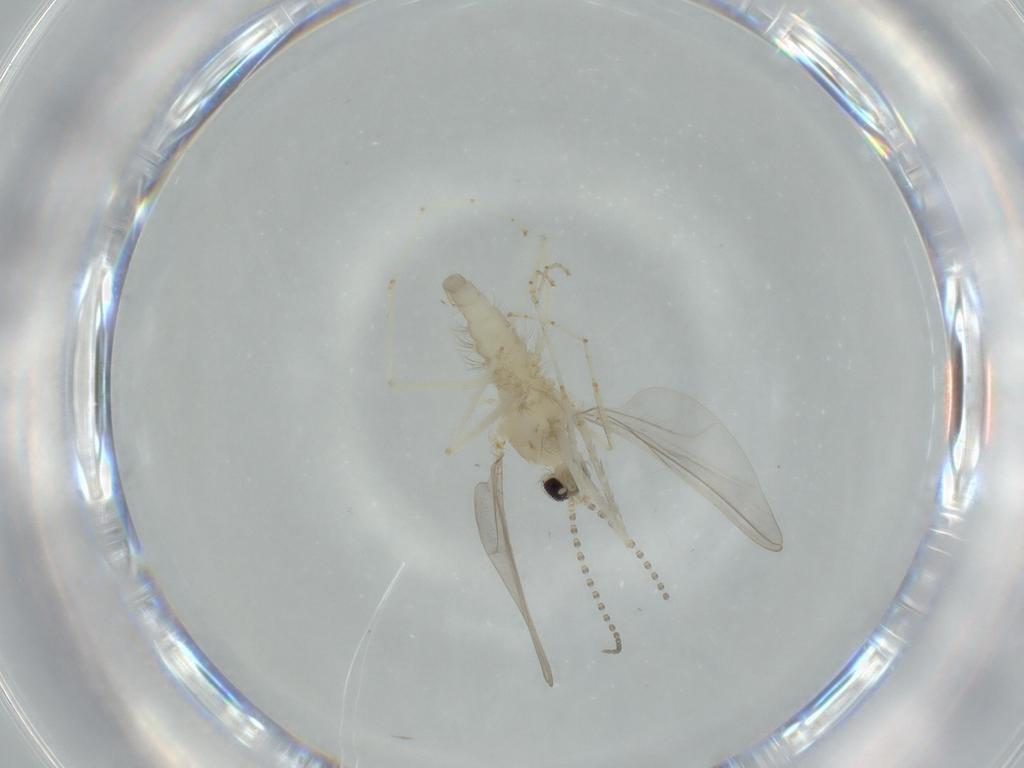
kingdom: Animalia
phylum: Arthropoda
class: Insecta
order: Diptera
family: Cecidomyiidae
